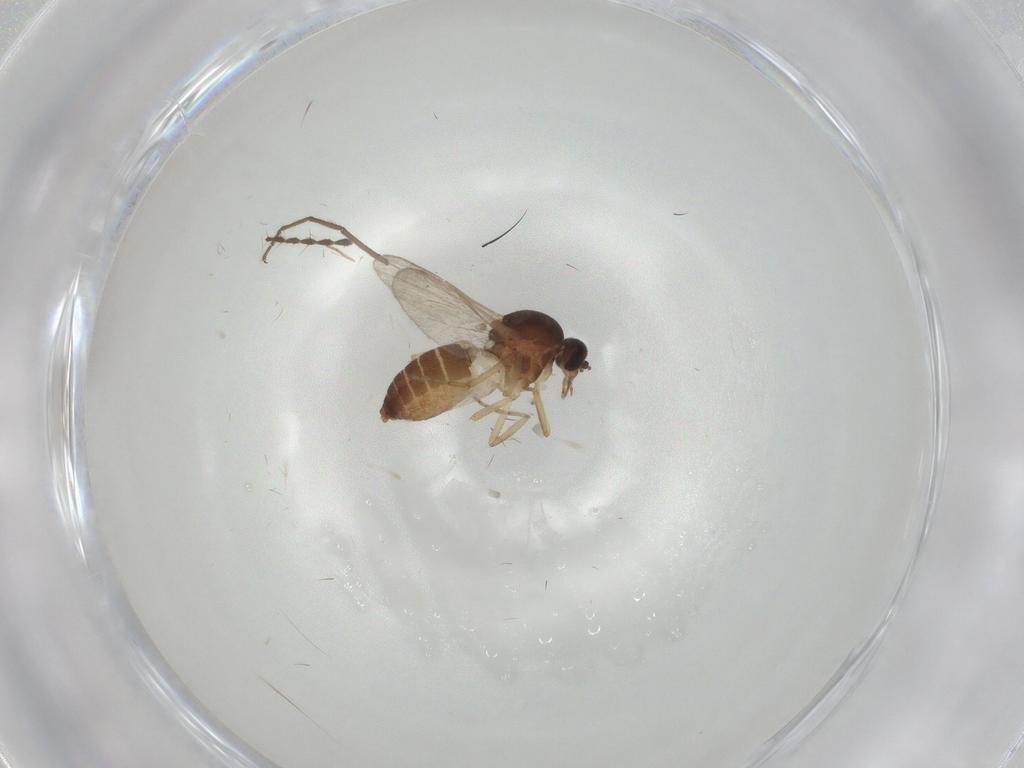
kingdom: Animalia
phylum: Arthropoda
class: Insecta
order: Diptera
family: Ceratopogonidae
